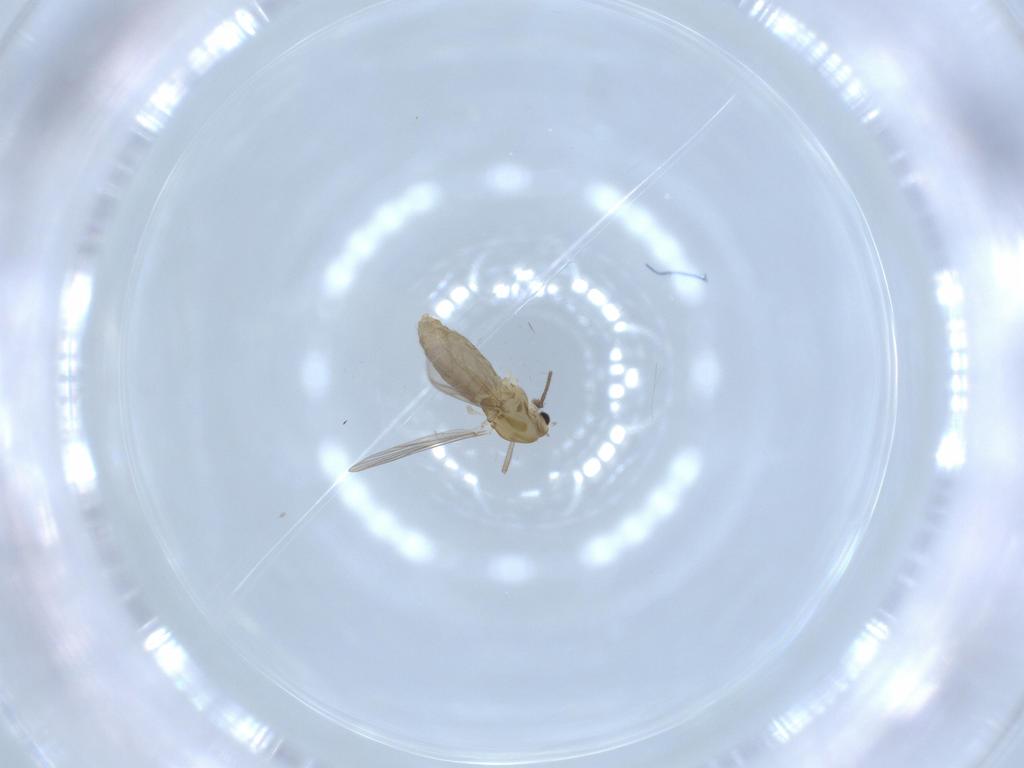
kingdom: Animalia
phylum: Arthropoda
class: Insecta
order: Diptera
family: Chironomidae
